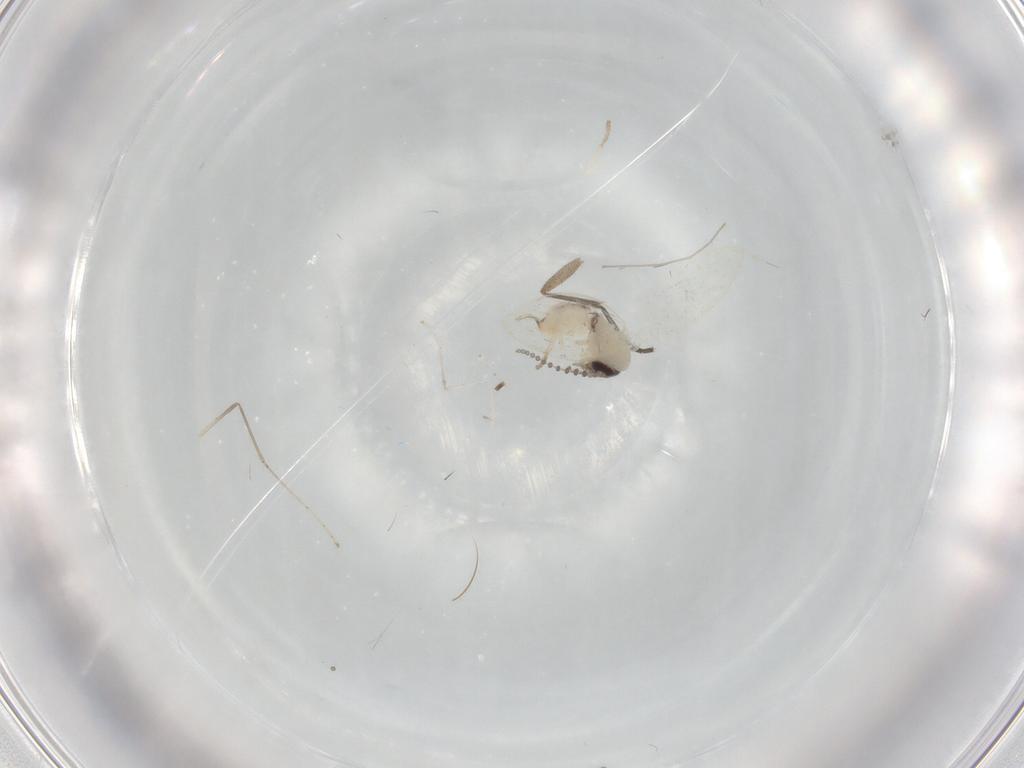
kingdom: Animalia
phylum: Arthropoda
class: Insecta
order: Diptera
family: Psychodidae
